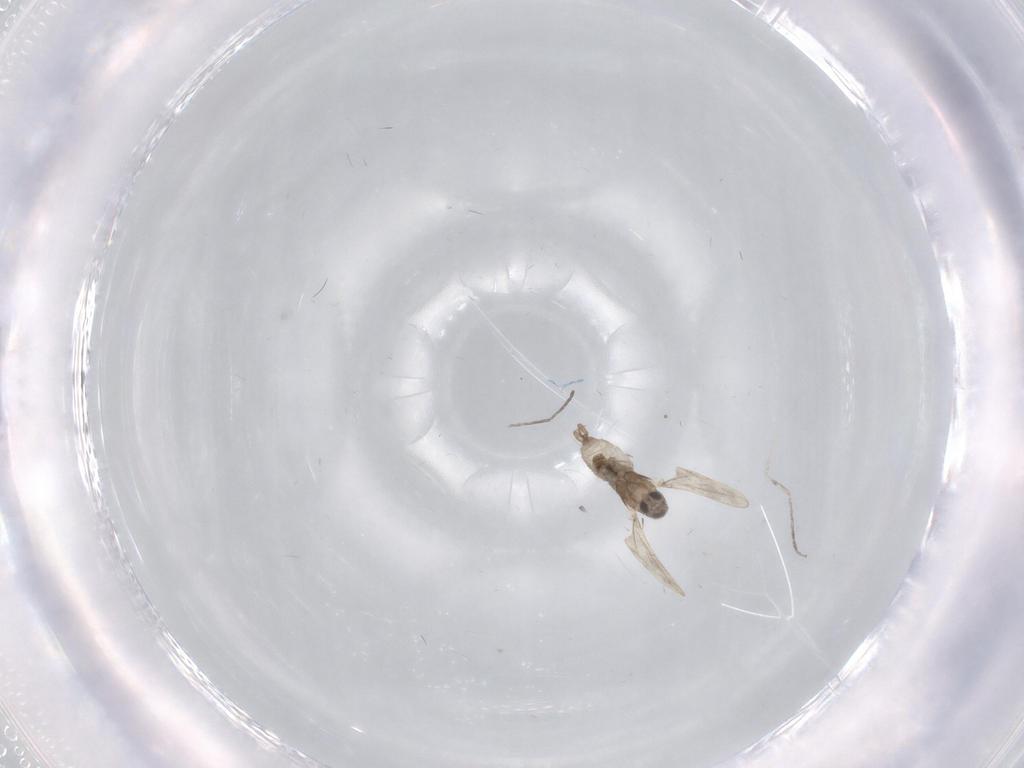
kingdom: Animalia
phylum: Arthropoda
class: Insecta
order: Diptera
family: Cecidomyiidae
